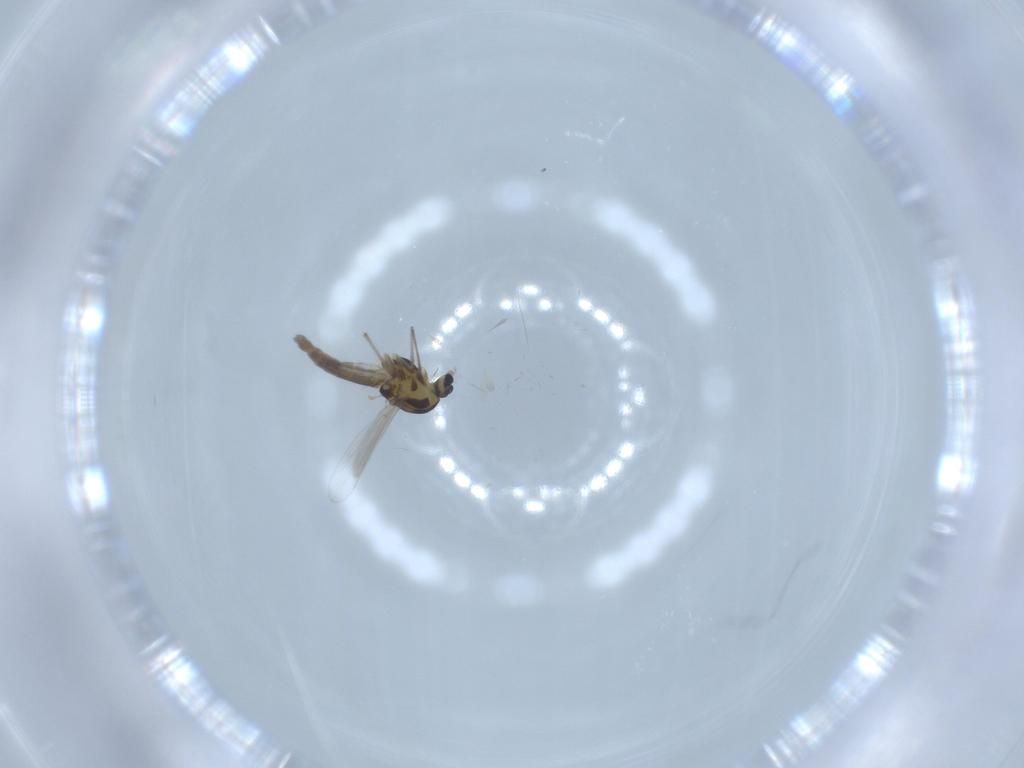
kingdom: Animalia
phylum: Arthropoda
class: Insecta
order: Diptera
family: Chironomidae
